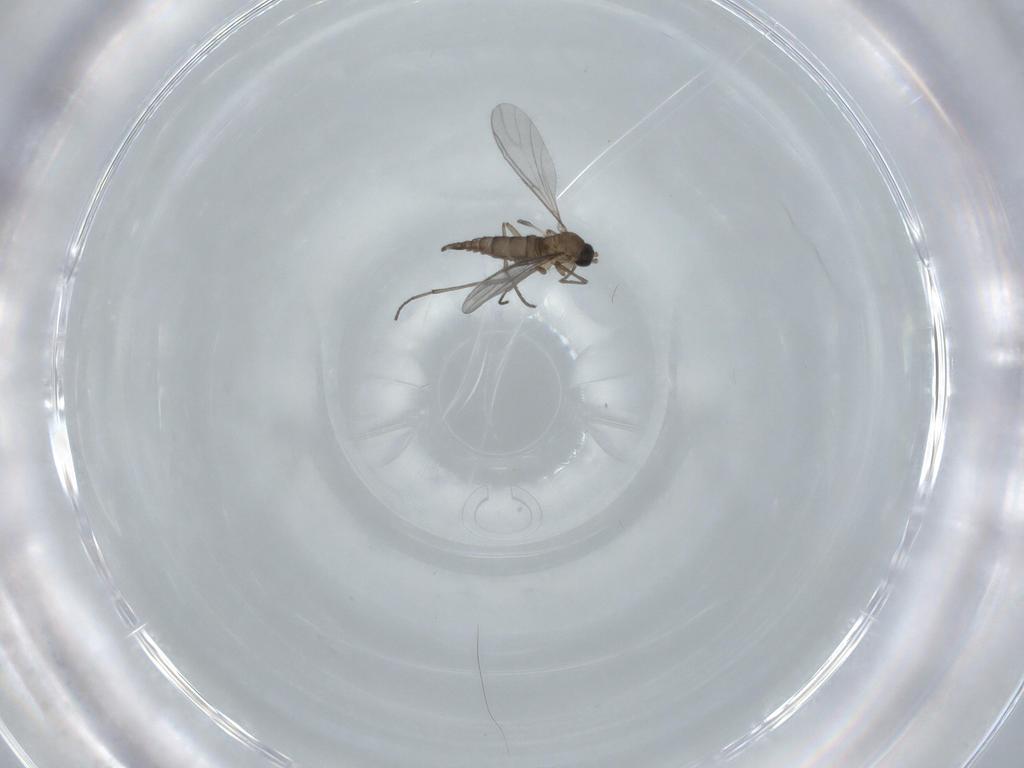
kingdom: Animalia
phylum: Arthropoda
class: Insecta
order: Diptera
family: Sciaridae
